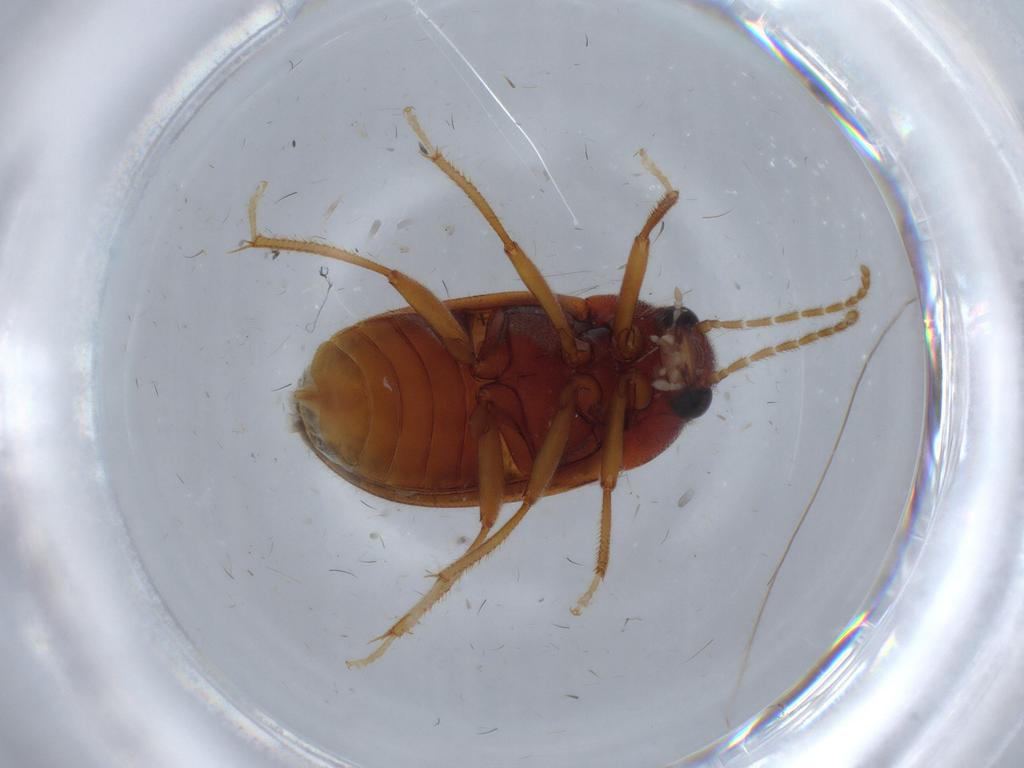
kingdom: Animalia
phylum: Arthropoda
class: Insecta
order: Coleoptera
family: Ptilodactylidae
